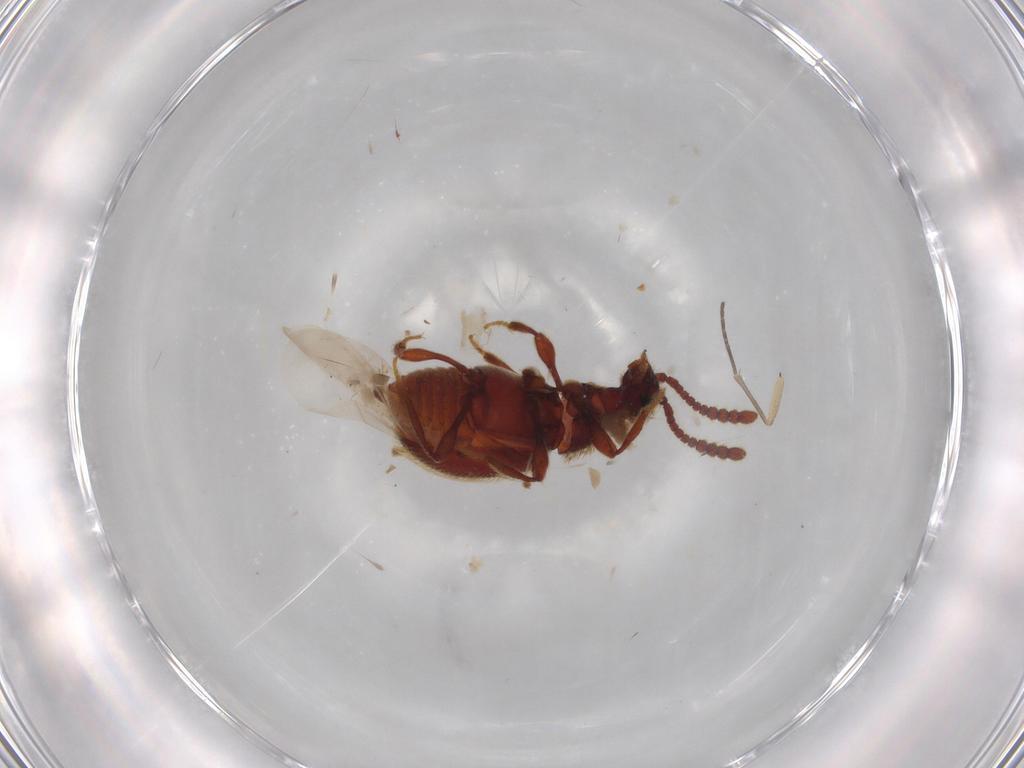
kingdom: Animalia
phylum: Arthropoda
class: Insecta
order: Coleoptera
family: Staphylinidae
